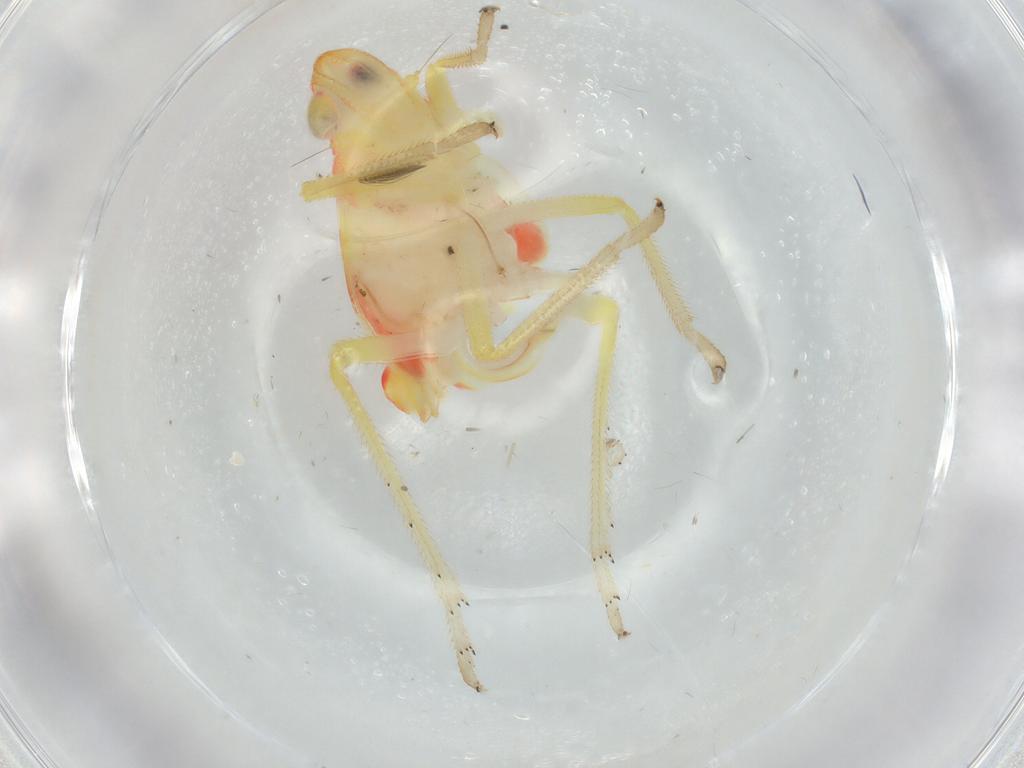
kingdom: Animalia
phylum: Arthropoda
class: Insecta
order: Hemiptera
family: Tropiduchidae
